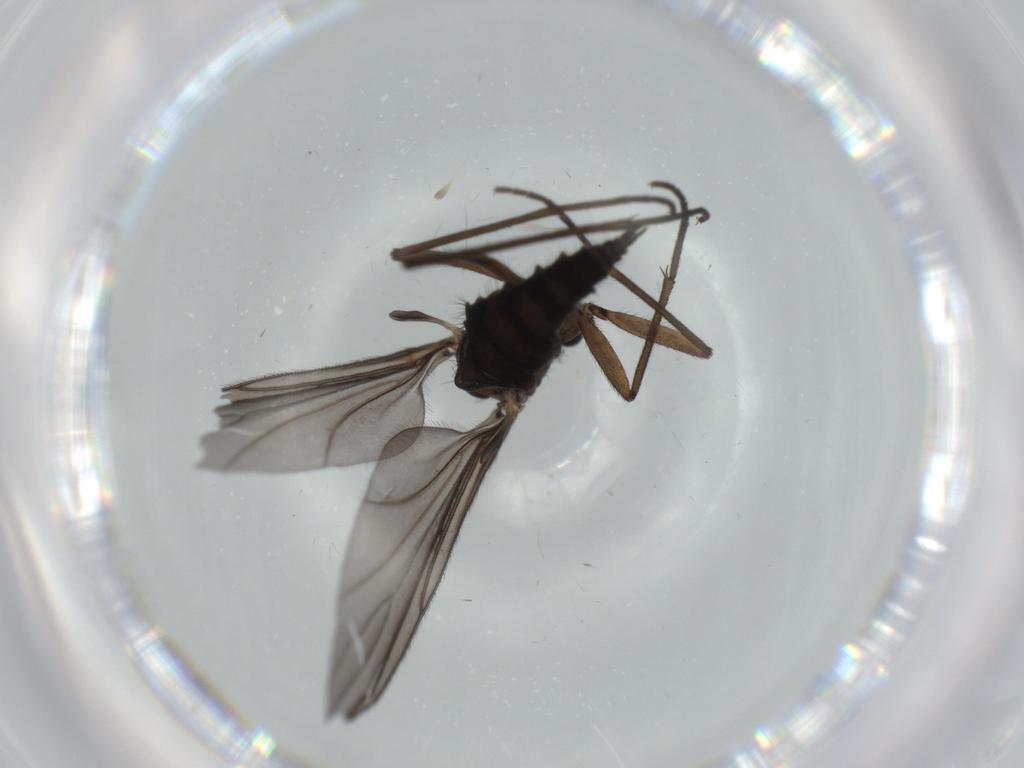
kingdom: Animalia
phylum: Arthropoda
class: Insecta
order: Diptera
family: Sciaridae
